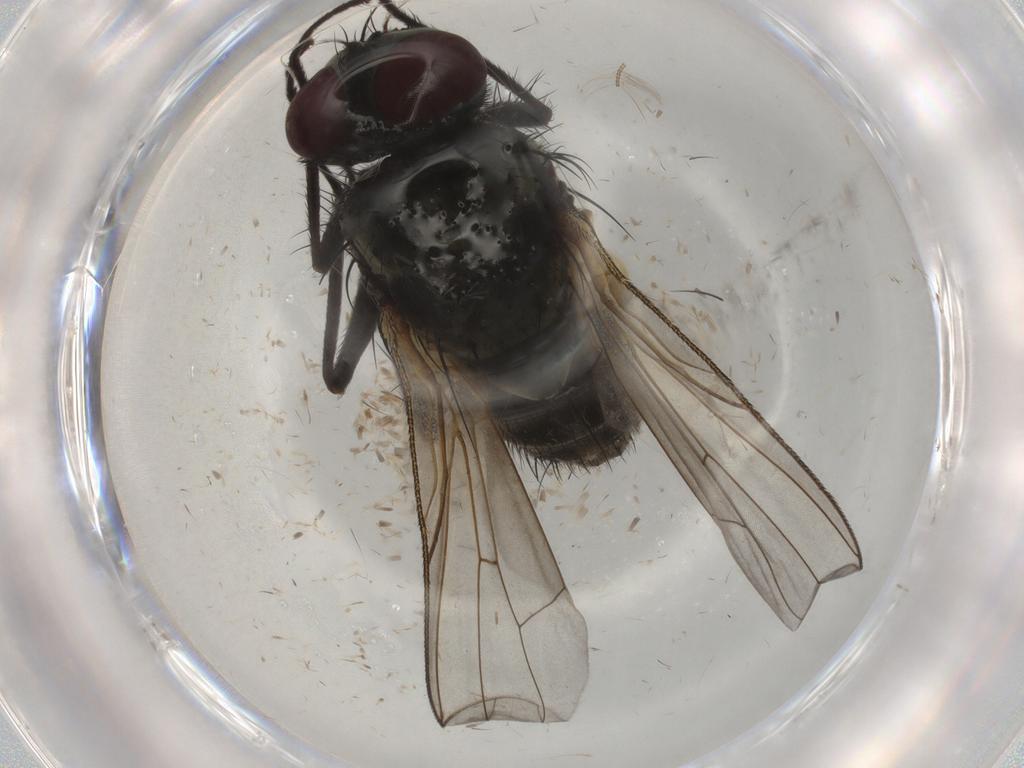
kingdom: Animalia
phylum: Arthropoda
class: Insecta
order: Diptera
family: Muscidae
